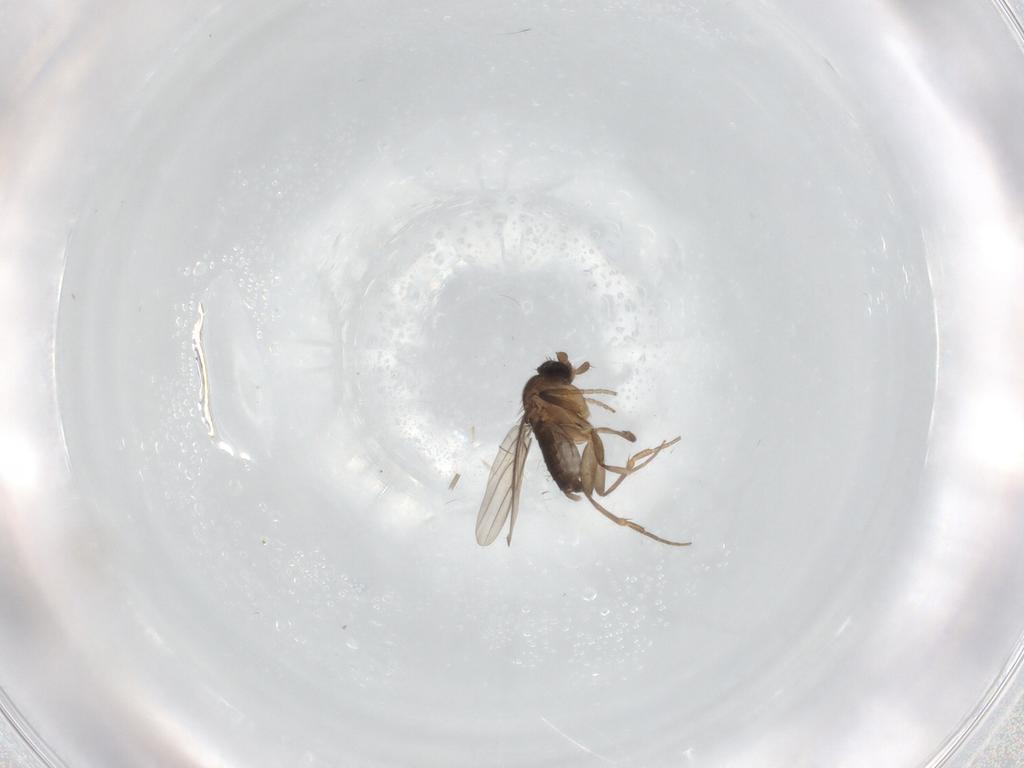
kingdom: Animalia
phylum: Arthropoda
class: Insecta
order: Diptera
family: Phoridae
